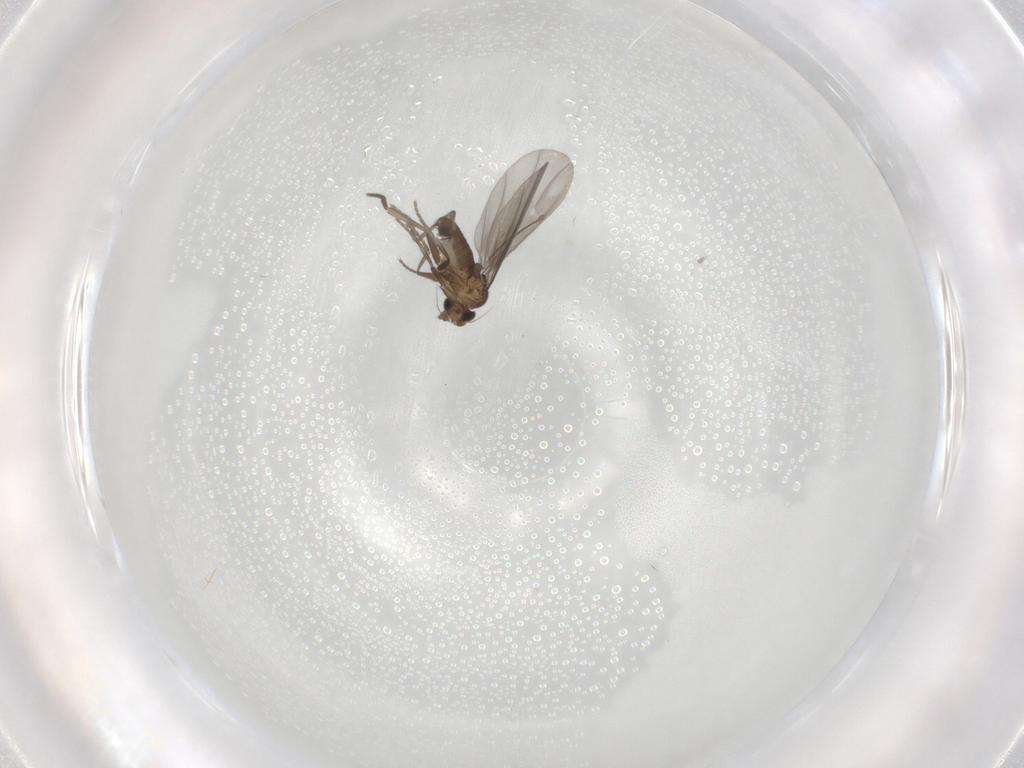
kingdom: Animalia
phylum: Arthropoda
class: Insecta
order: Diptera
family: Phoridae
